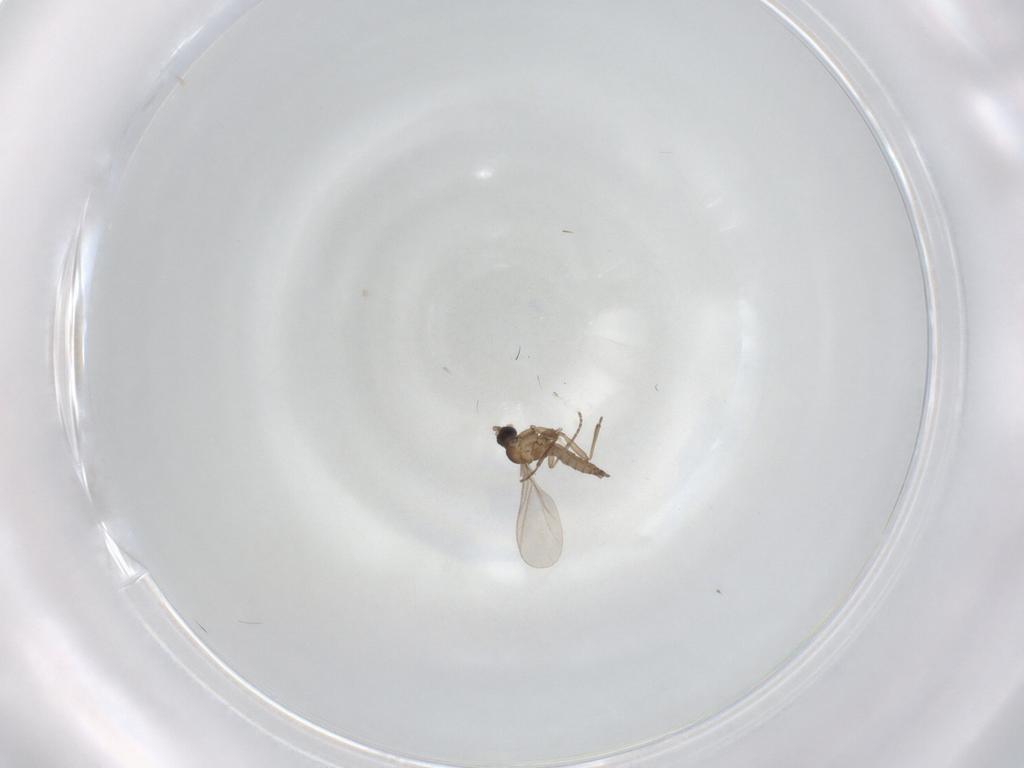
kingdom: Animalia
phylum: Arthropoda
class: Insecta
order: Diptera
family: Sciaridae
